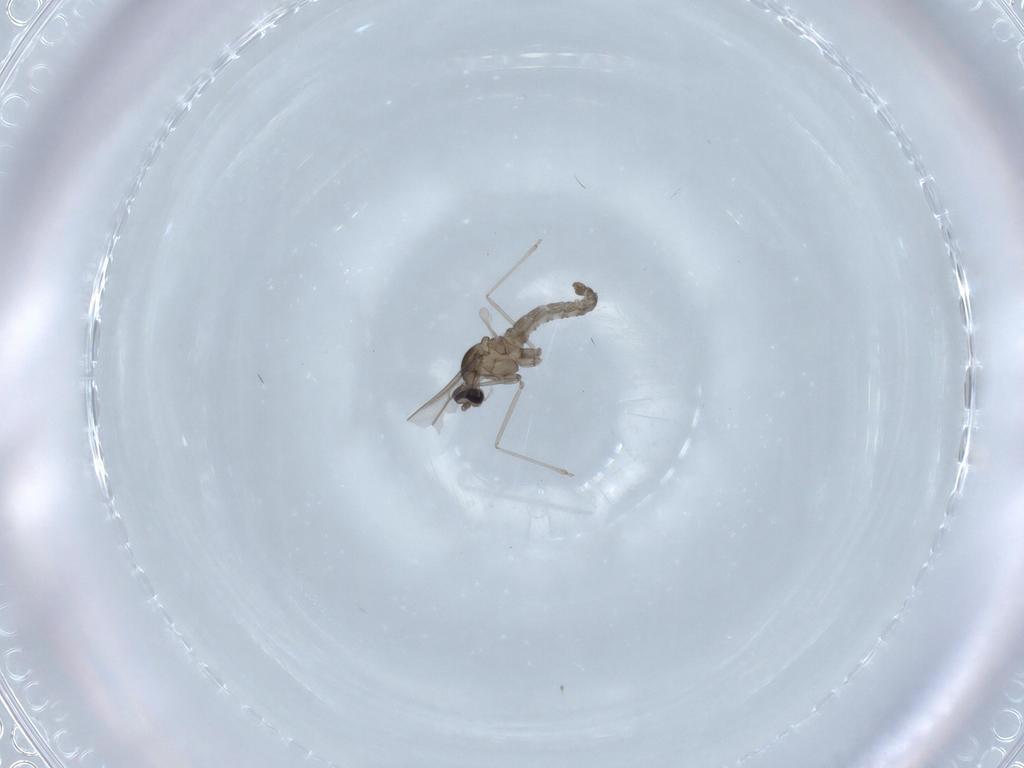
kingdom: Animalia
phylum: Arthropoda
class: Insecta
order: Diptera
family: Cecidomyiidae
